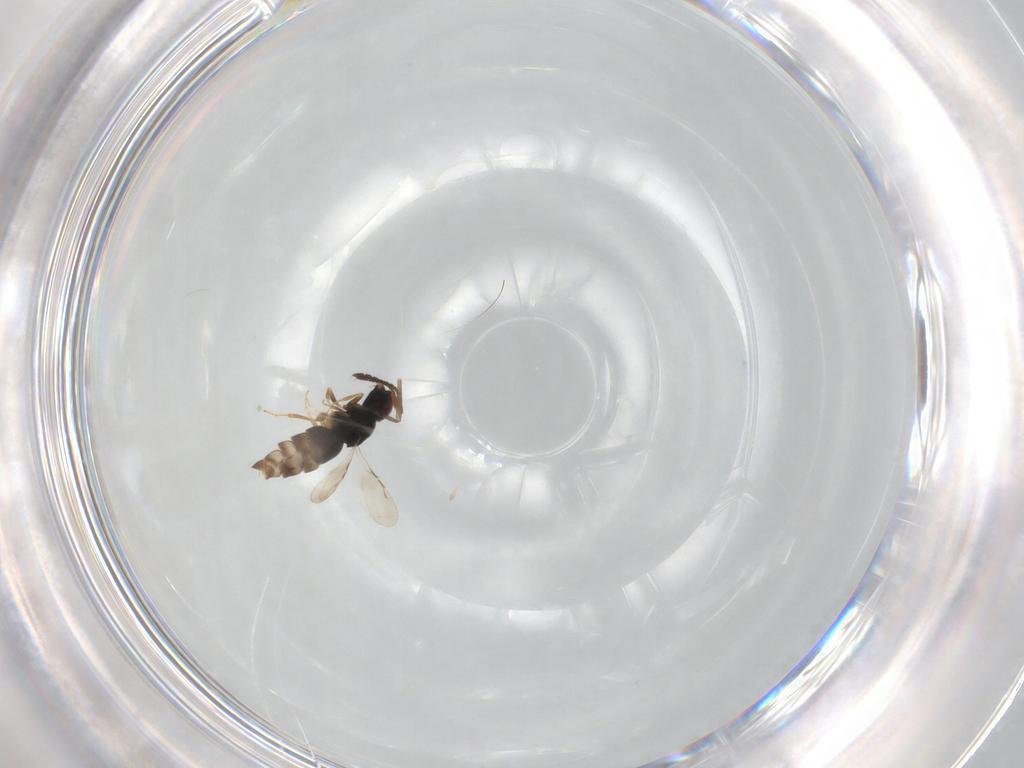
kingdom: Animalia
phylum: Arthropoda
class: Insecta
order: Hymenoptera
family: Ceraphronidae
